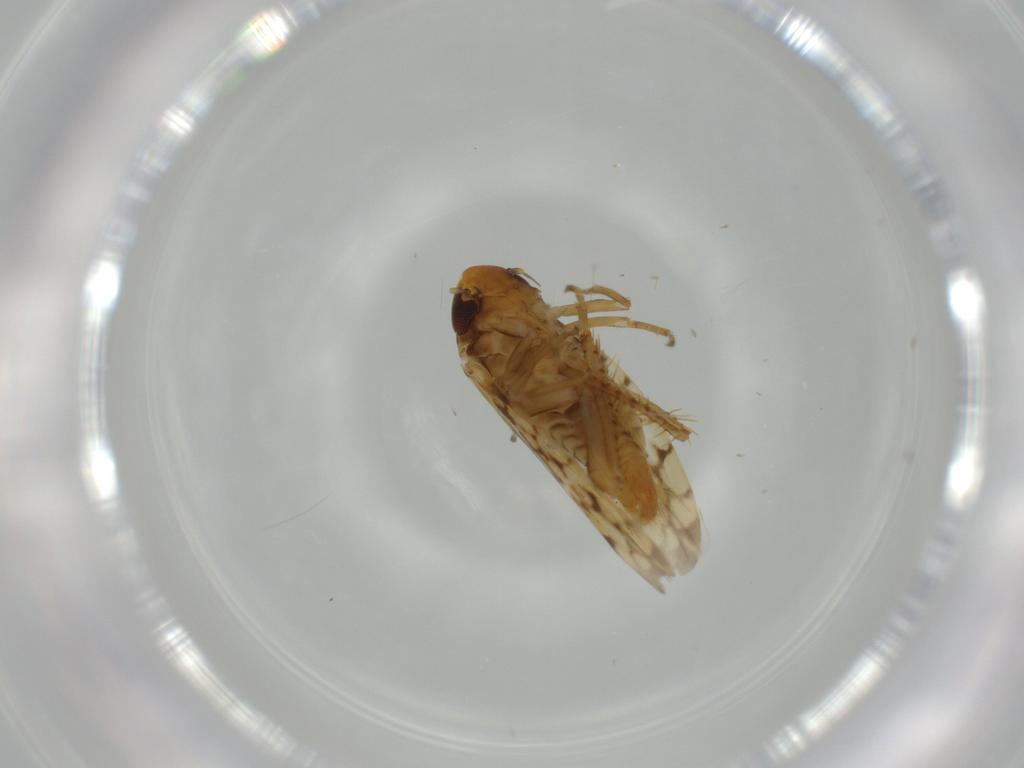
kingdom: Animalia
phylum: Arthropoda
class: Insecta
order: Hemiptera
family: Cicadellidae
